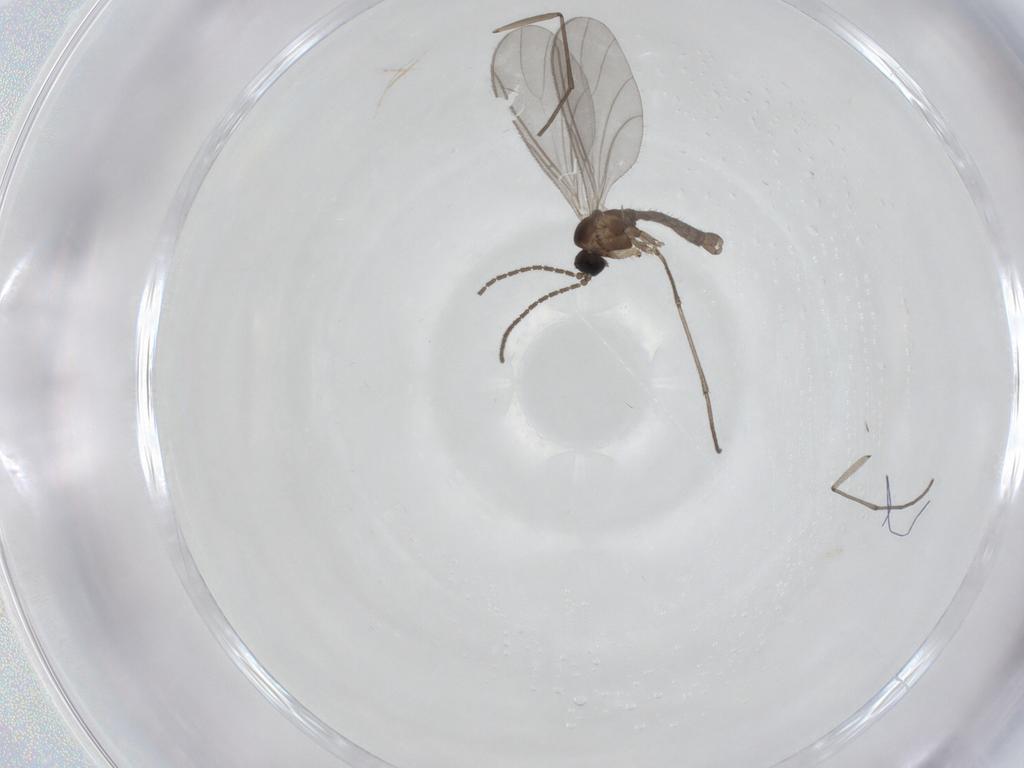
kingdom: Animalia
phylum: Arthropoda
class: Insecta
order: Diptera
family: Sciaridae
